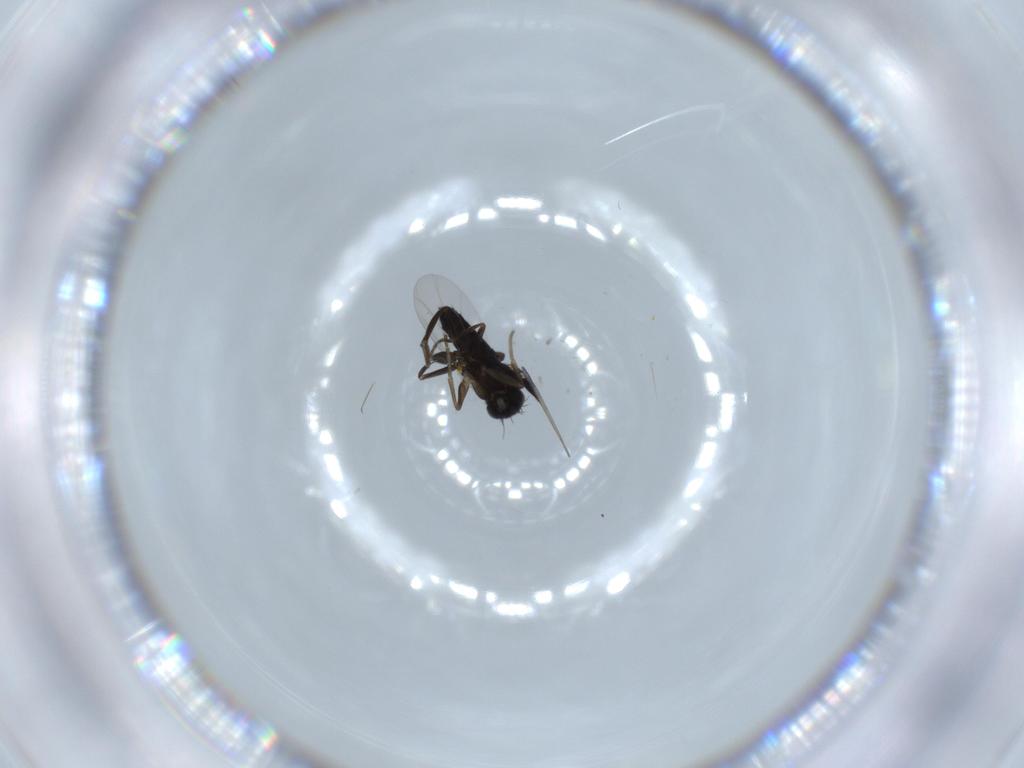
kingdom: Animalia
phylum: Arthropoda
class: Insecta
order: Diptera
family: Phoridae
